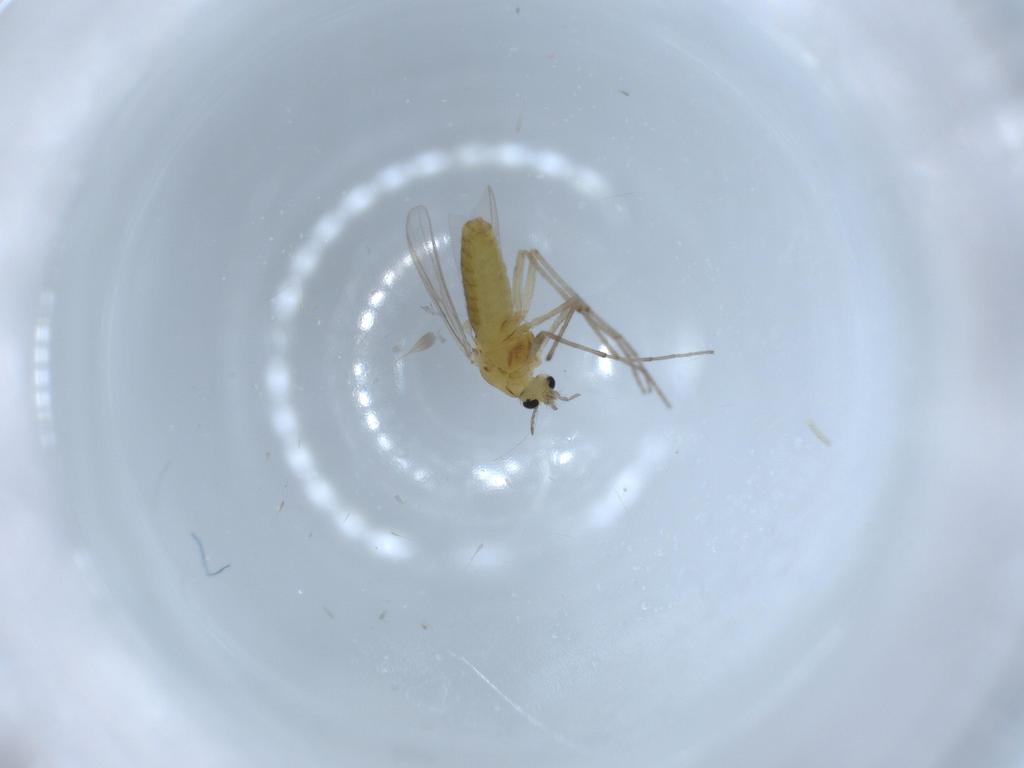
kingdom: Animalia
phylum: Arthropoda
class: Insecta
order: Diptera
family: Chironomidae
